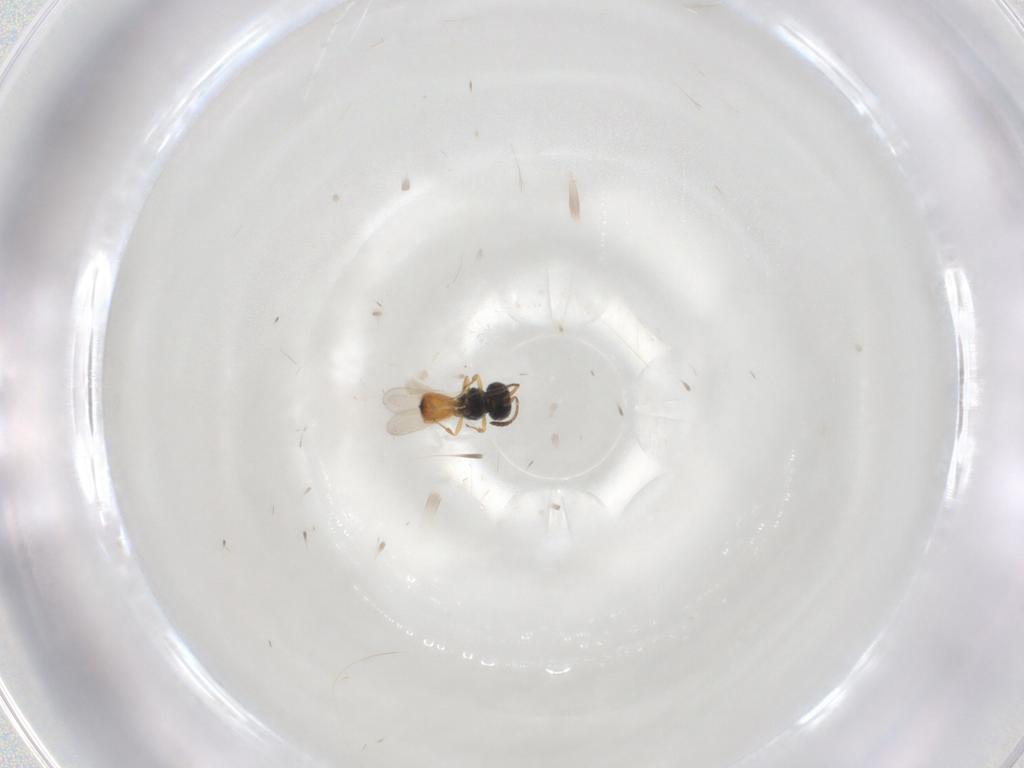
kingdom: Animalia
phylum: Arthropoda
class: Insecta
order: Hymenoptera
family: Scelionidae
